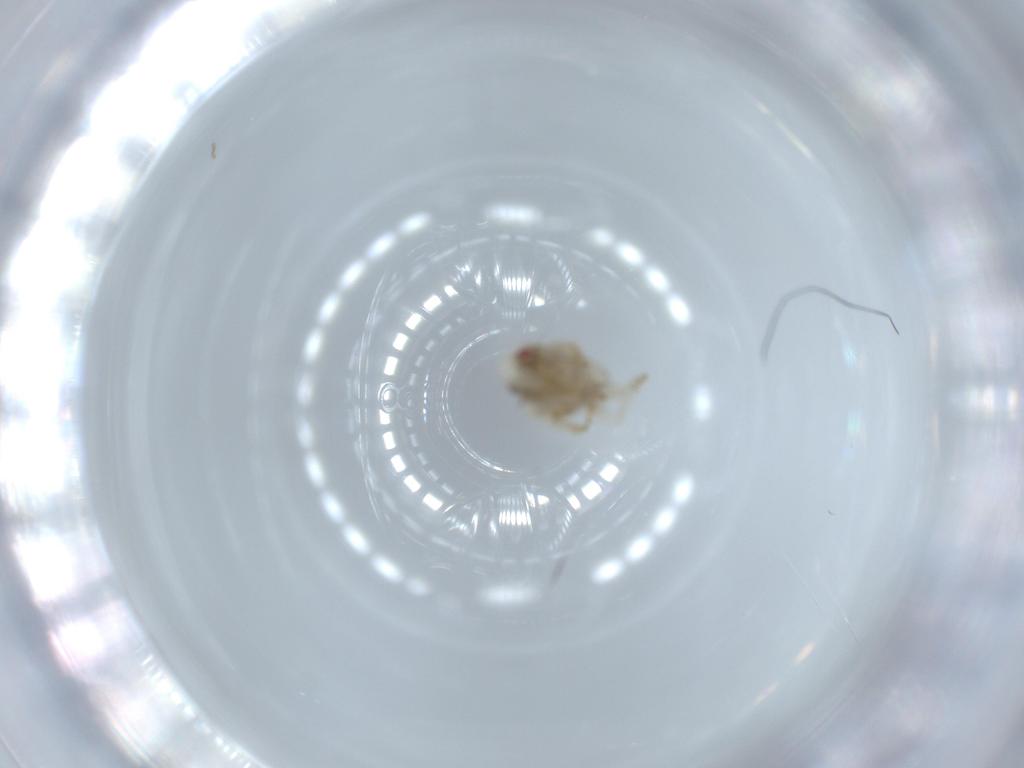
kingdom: Animalia
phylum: Arthropoda
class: Insecta
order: Hemiptera
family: Acanaloniidae
